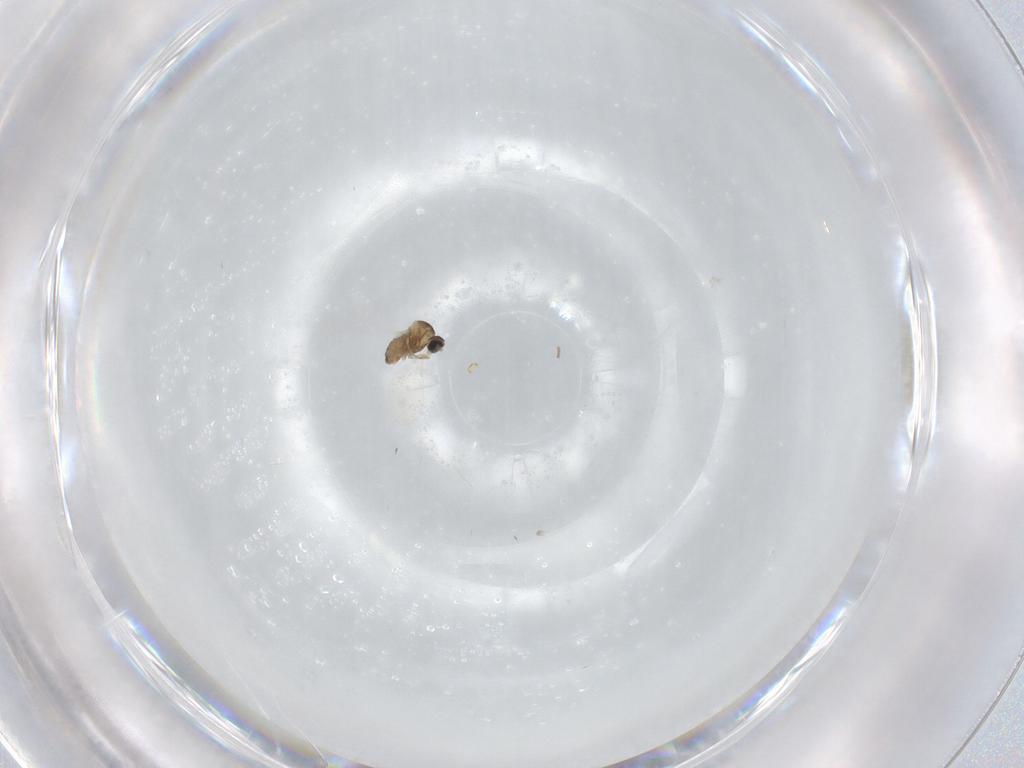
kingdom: Animalia
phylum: Arthropoda
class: Insecta
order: Diptera
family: Cecidomyiidae
